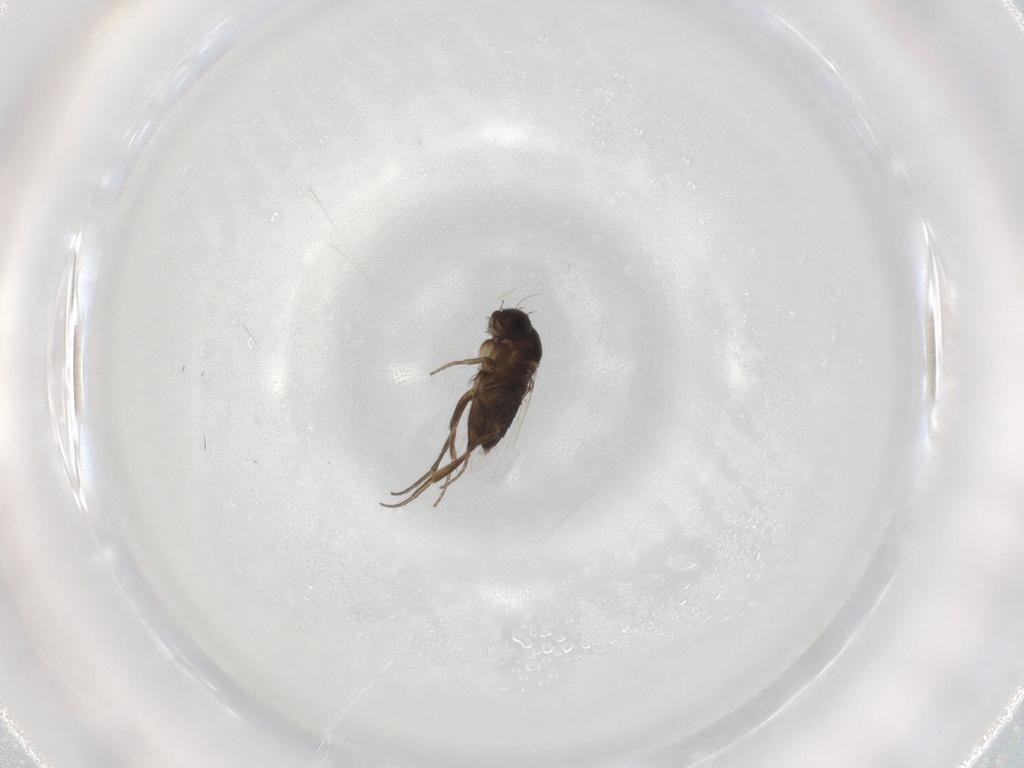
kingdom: Animalia
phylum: Arthropoda
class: Insecta
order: Diptera
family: Phoridae
